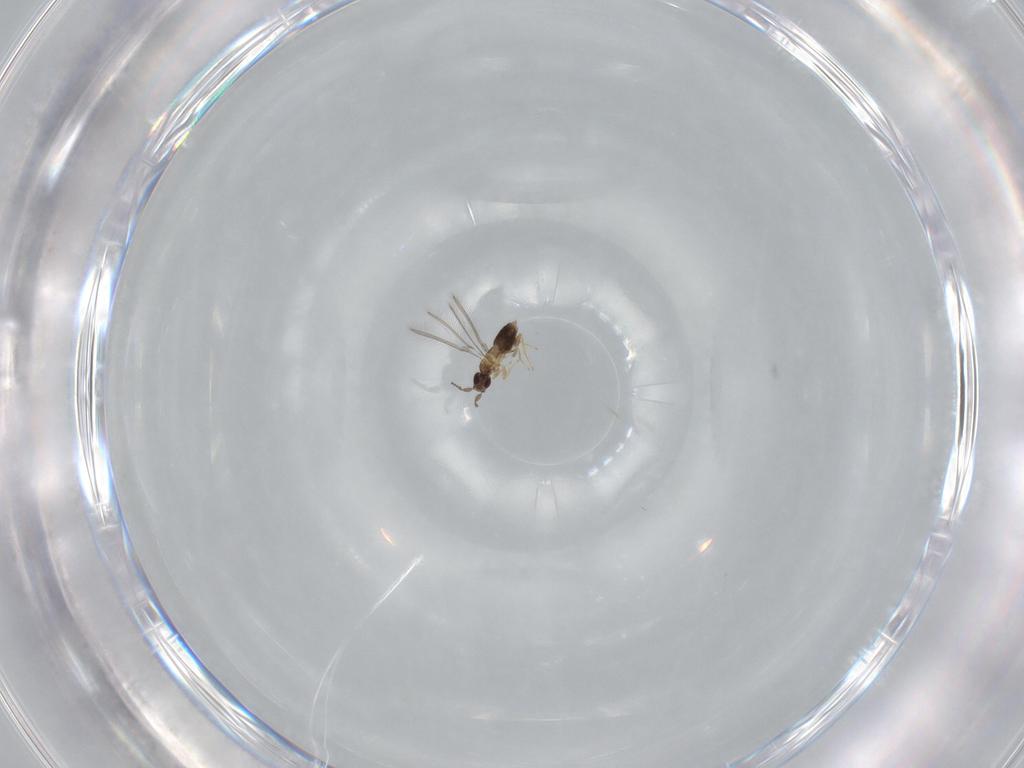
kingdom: Animalia
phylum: Arthropoda
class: Insecta
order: Hymenoptera
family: Mymaridae
